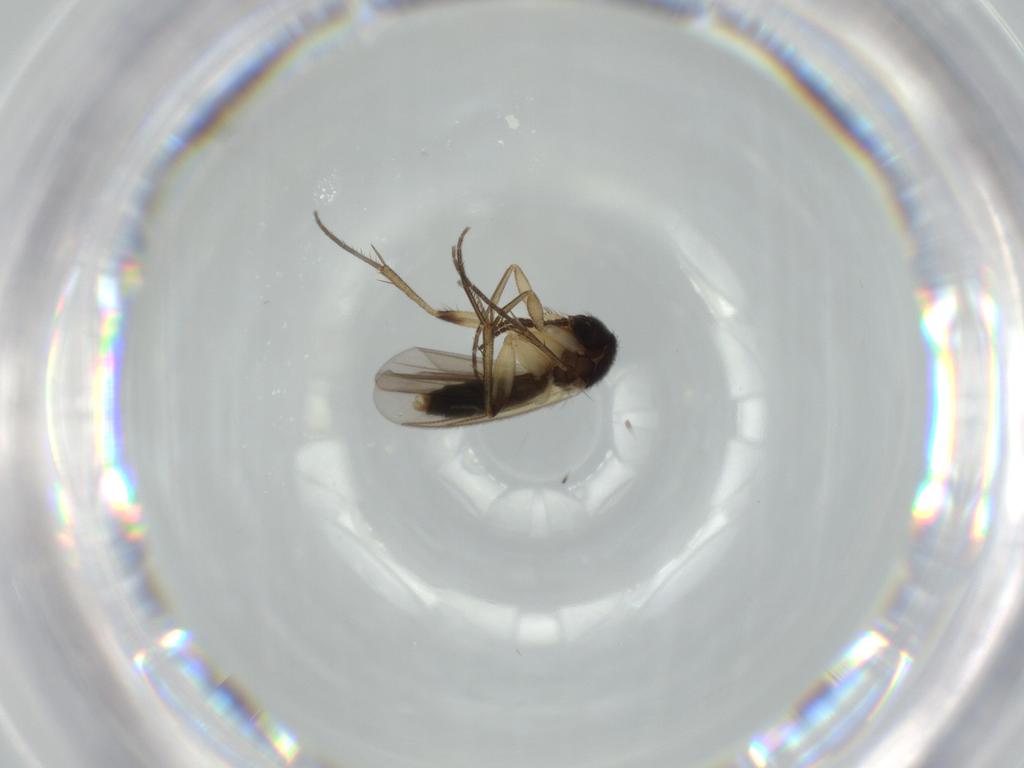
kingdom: Animalia
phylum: Arthropoda
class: Insecta
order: Diptera
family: Mycetophilidae
